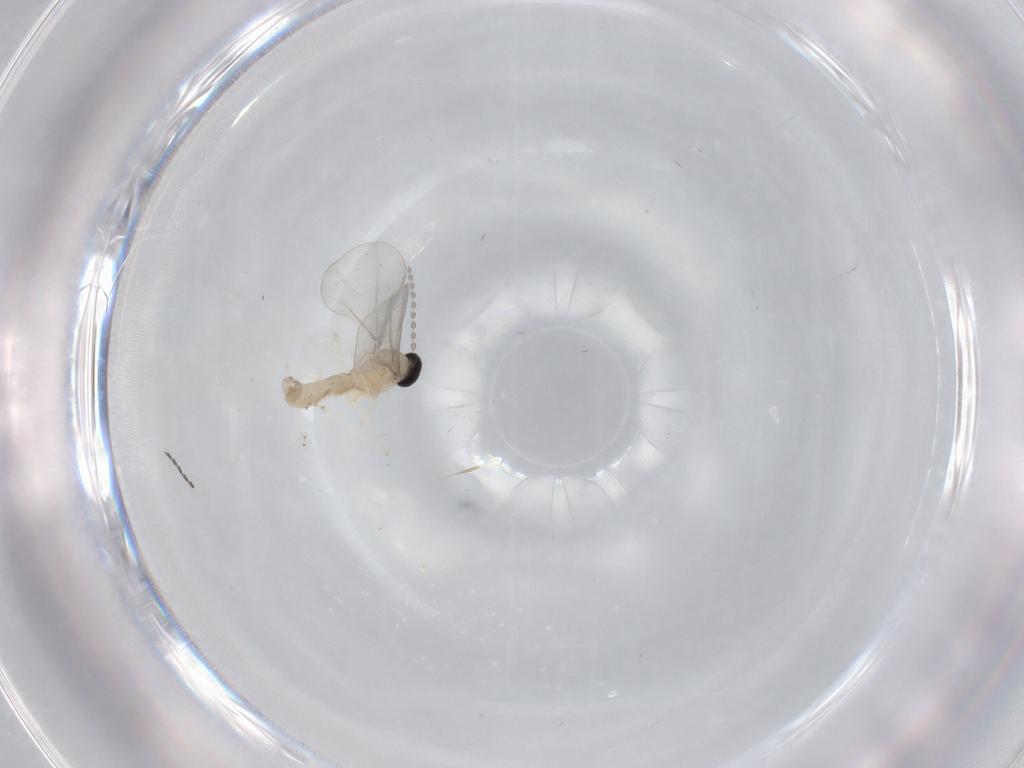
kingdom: Animalia
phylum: Arthropoda
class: Insecta
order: Diptera
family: Cecidomyiidae
